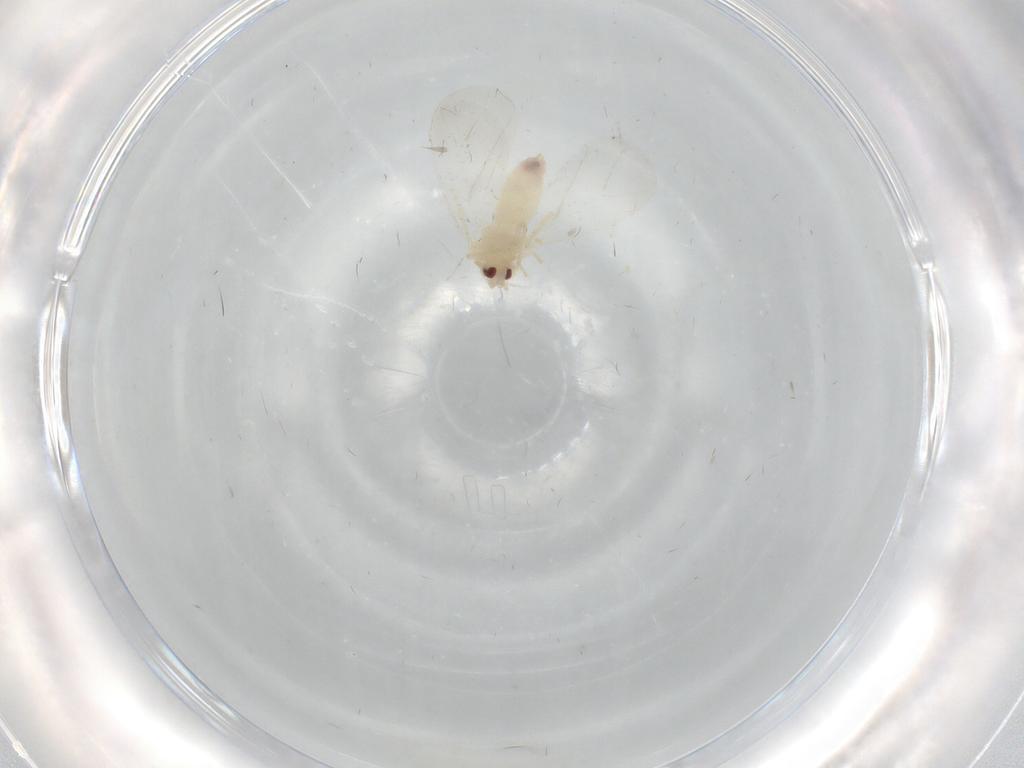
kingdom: Animalia
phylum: Arthropoda
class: Insecta
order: Hemiptera
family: Aleyrodidae
